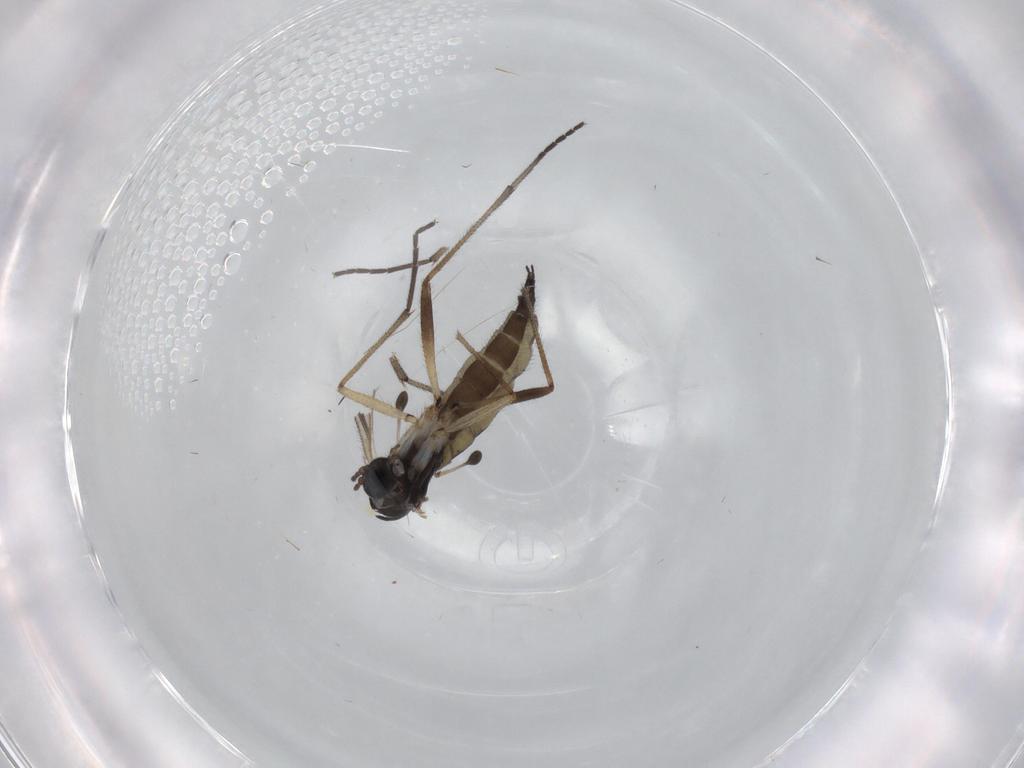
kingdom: Animalia
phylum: Arthropoda
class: Insecta
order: Diptera
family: Sciaridae
